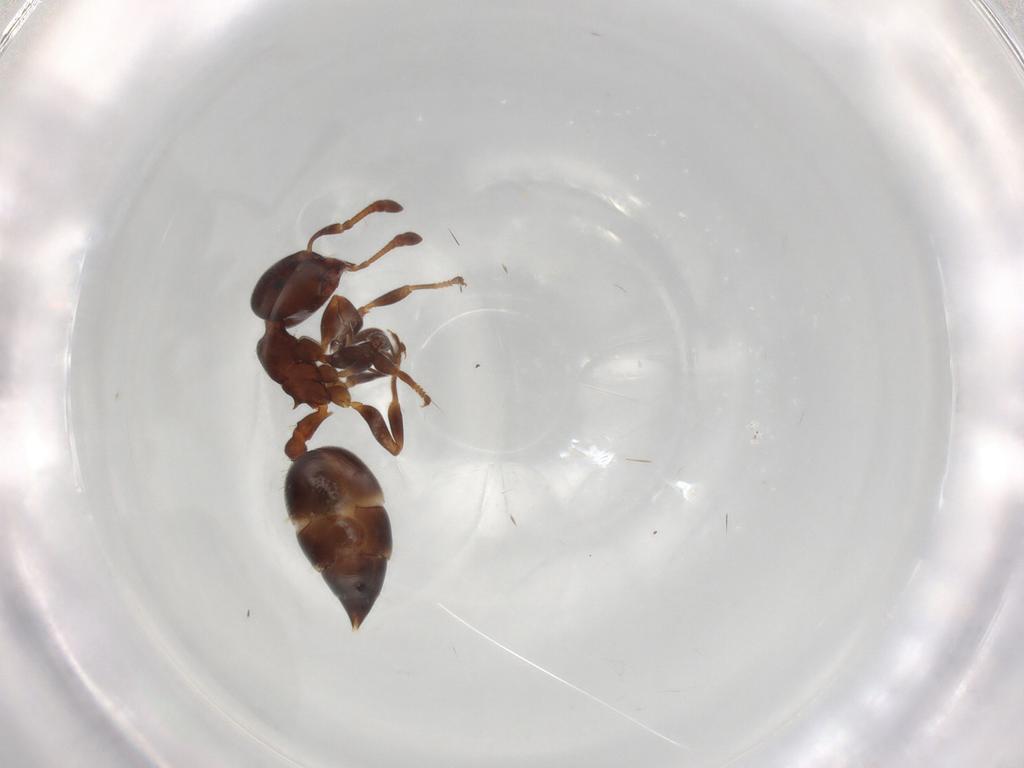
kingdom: Animalia
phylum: Arthropoda
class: Insecta
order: Hymenoptera
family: Formicidae
